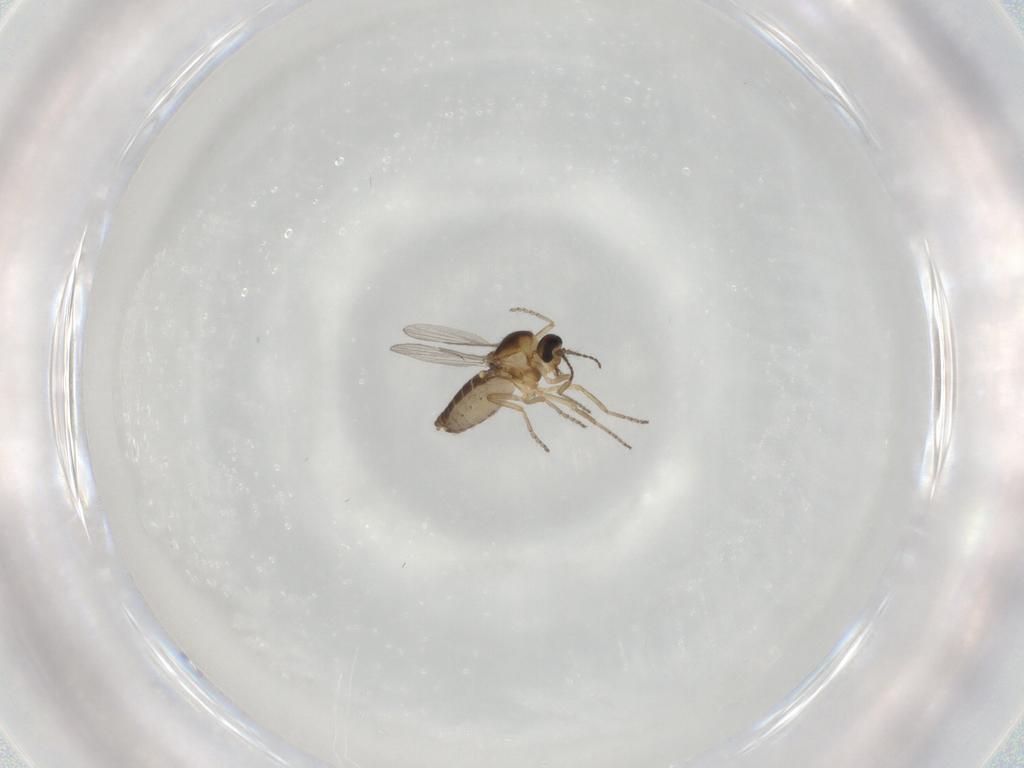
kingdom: Animalia
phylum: Arthropoda
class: Insecta
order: Diptera
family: Ceratopogonidae
